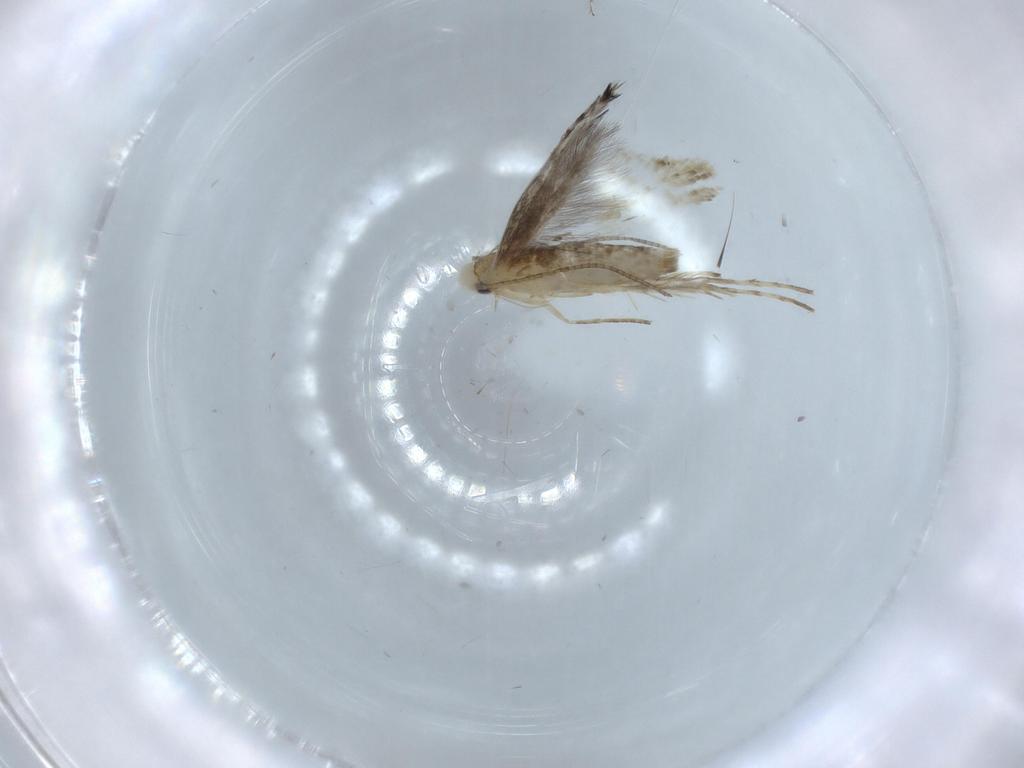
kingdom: Animalia
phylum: Arthropoda
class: Insecta
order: Lepidoptera
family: Gracillariidae
